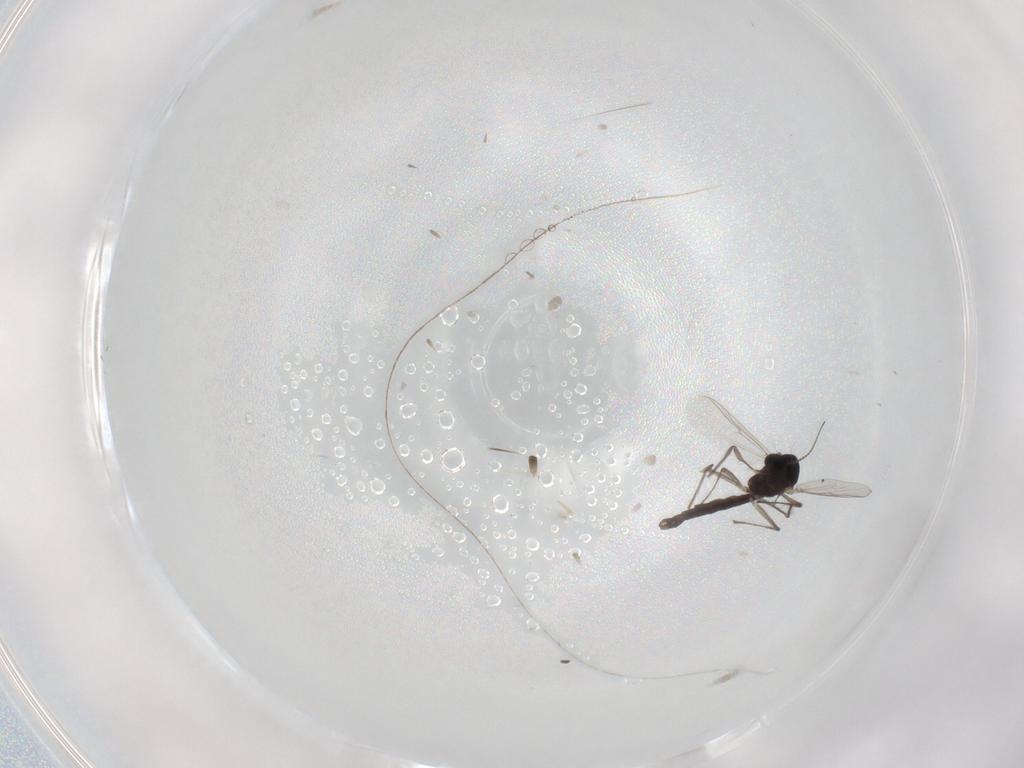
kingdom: Animalia
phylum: Arthropoda
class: Insecta
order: Diptera
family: Chironomidae
